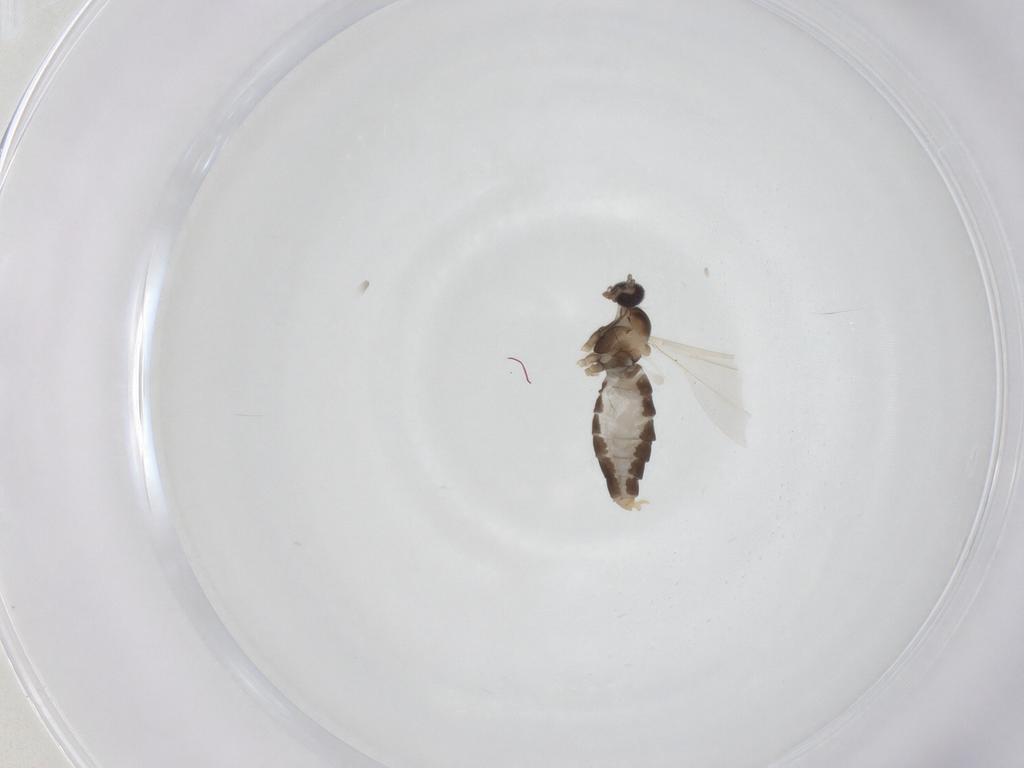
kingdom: Animalia
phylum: Arthropoda
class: Insecta
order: Diptera
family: Cecidomyiidae
